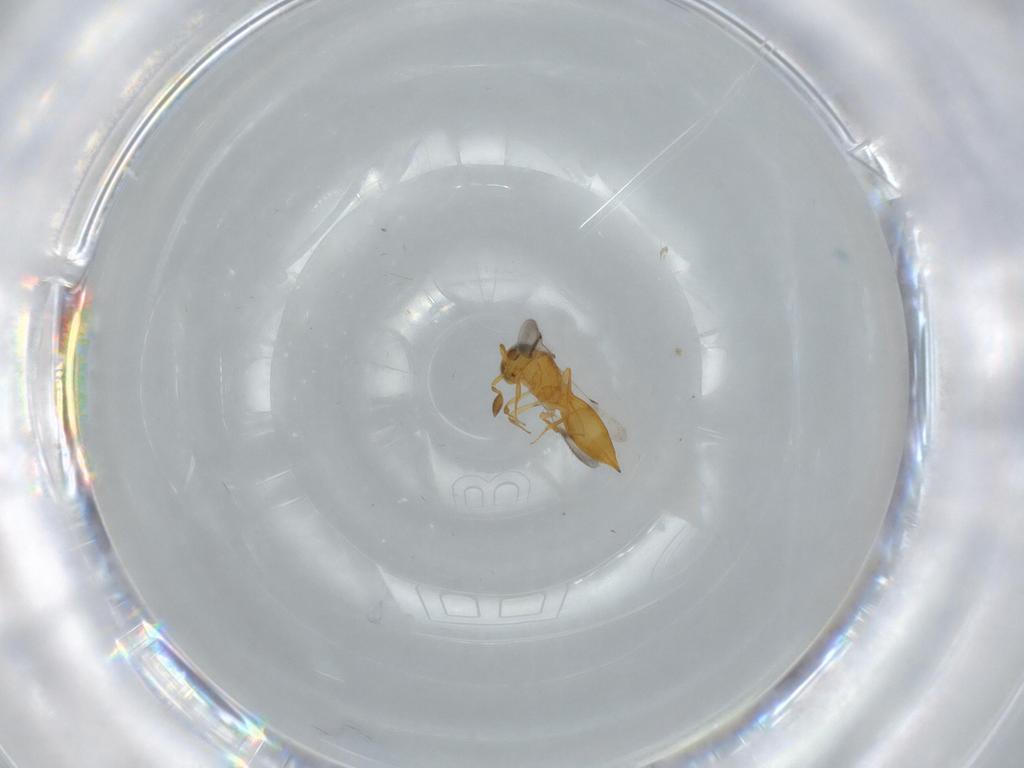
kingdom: Animalia
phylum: Arthropoda
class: Insecta
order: Hymenoptera
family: Scelionidae
